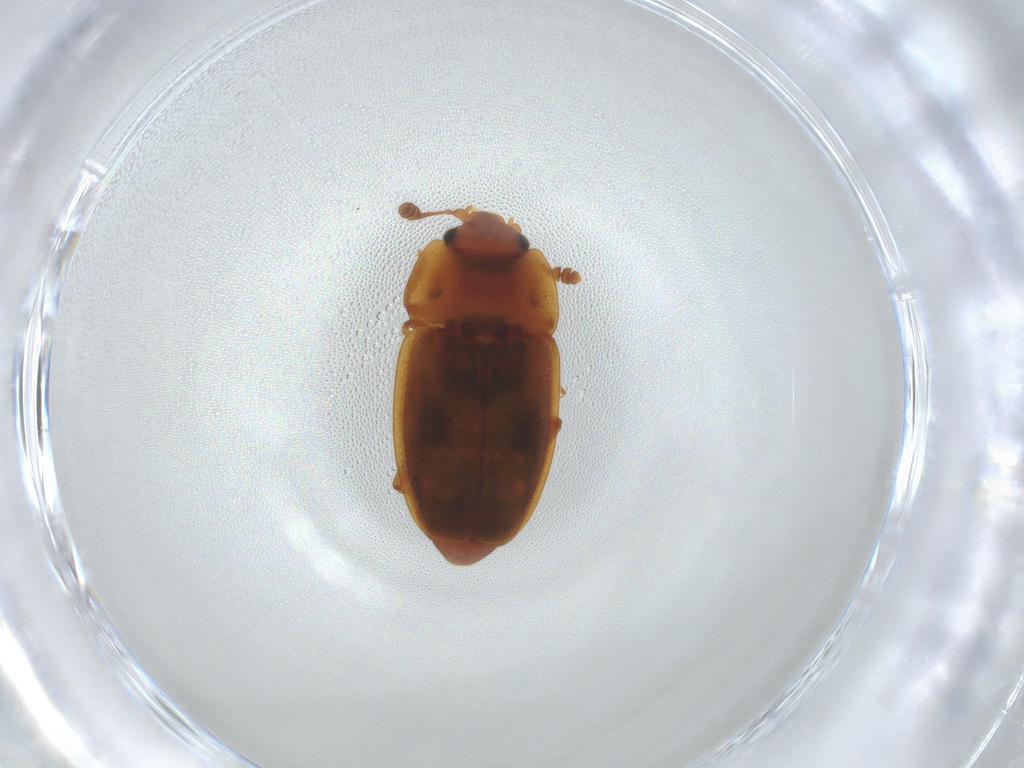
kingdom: Animalia
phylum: Arthropoda
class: Insecta
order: Coleoptera
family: Nitidulidae
